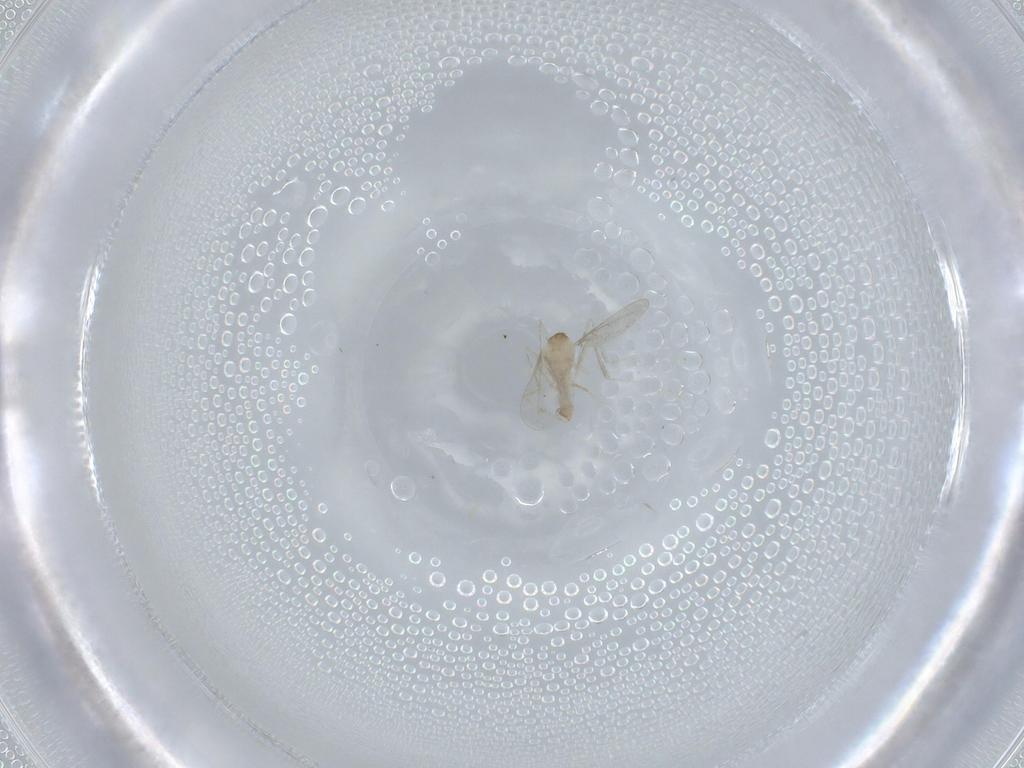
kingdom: Animalia
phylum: Arthropoda
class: Insecta
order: Diptera
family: Cecidomyiidae
